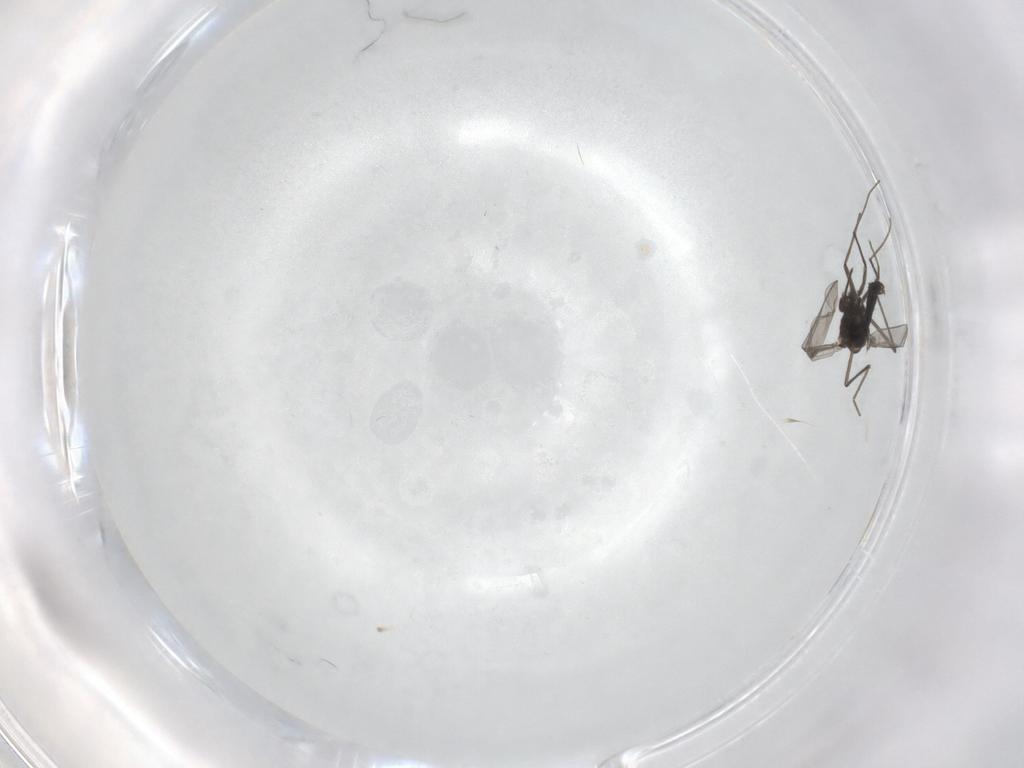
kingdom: Animalia
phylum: Arthropoda
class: Insecta
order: Diptera
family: Chironomidae
